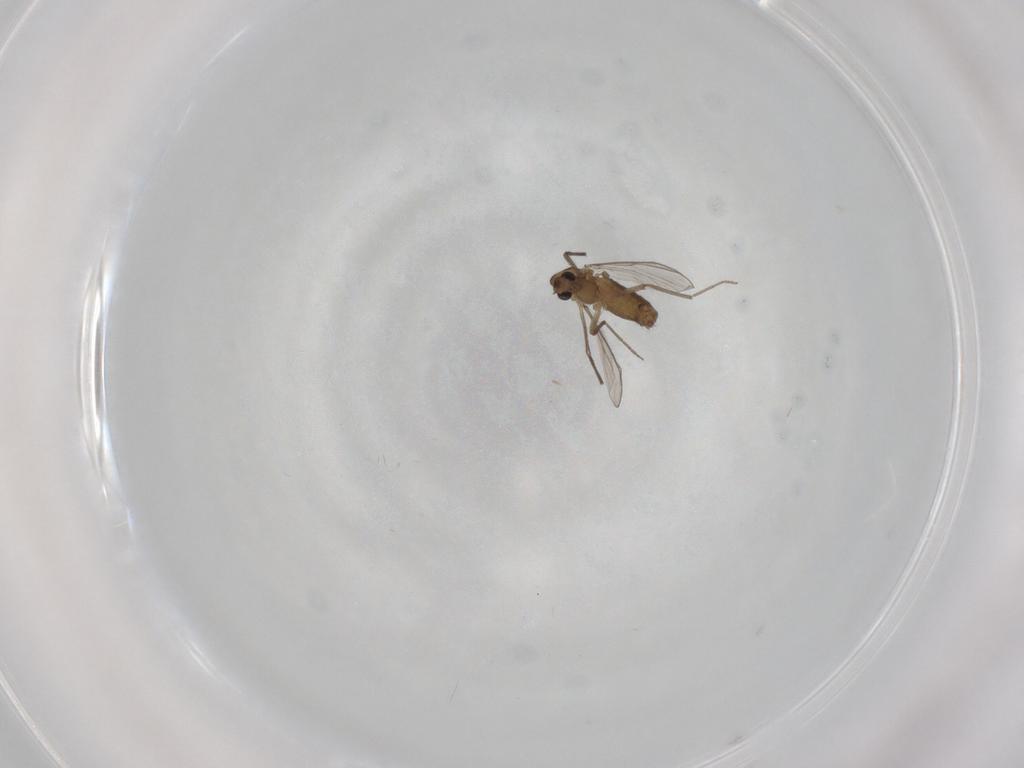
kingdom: Animalia
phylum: Arthropoda
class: Insecta
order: Diptera
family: Chironomidae
